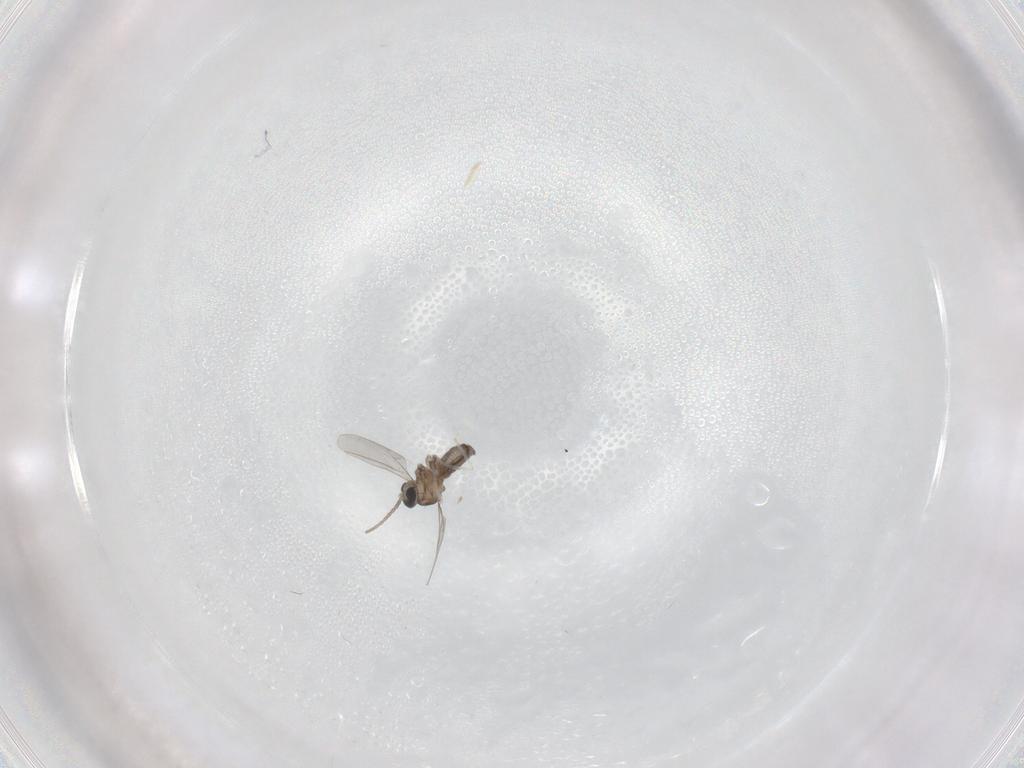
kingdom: Animalia
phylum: Arthropoda
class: Insecta
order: Diptera
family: Cecidomyiidae
